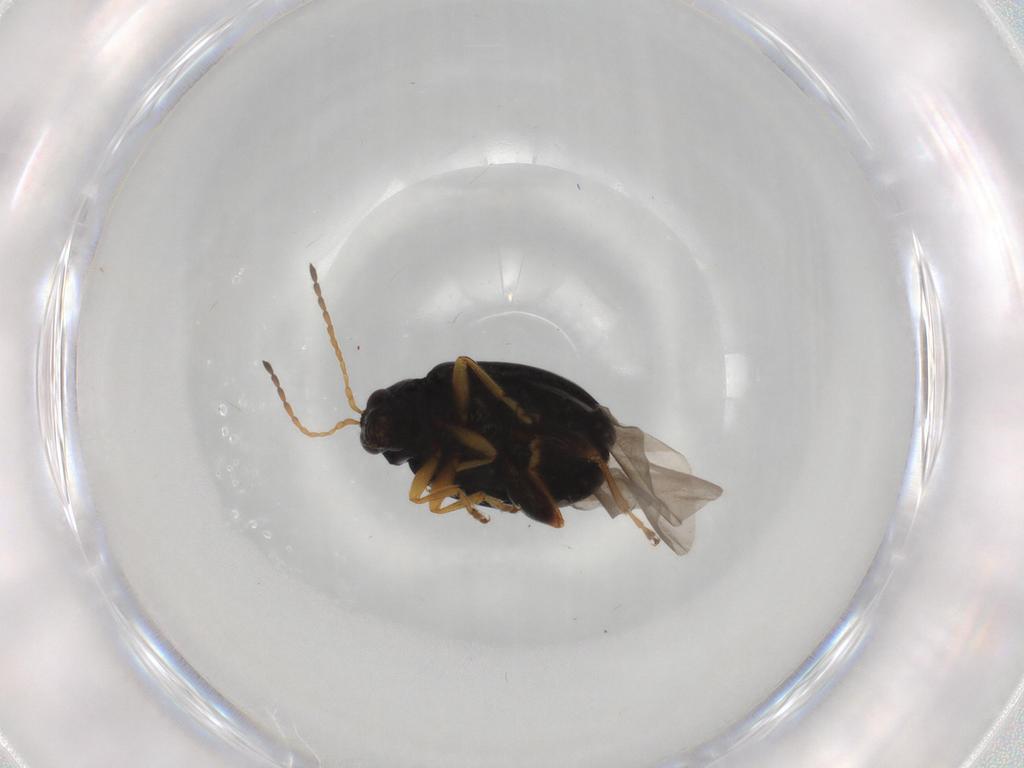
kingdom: Animalia
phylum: Arthropoda
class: Insecta
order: Coleoptera
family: Chrysomelidae
